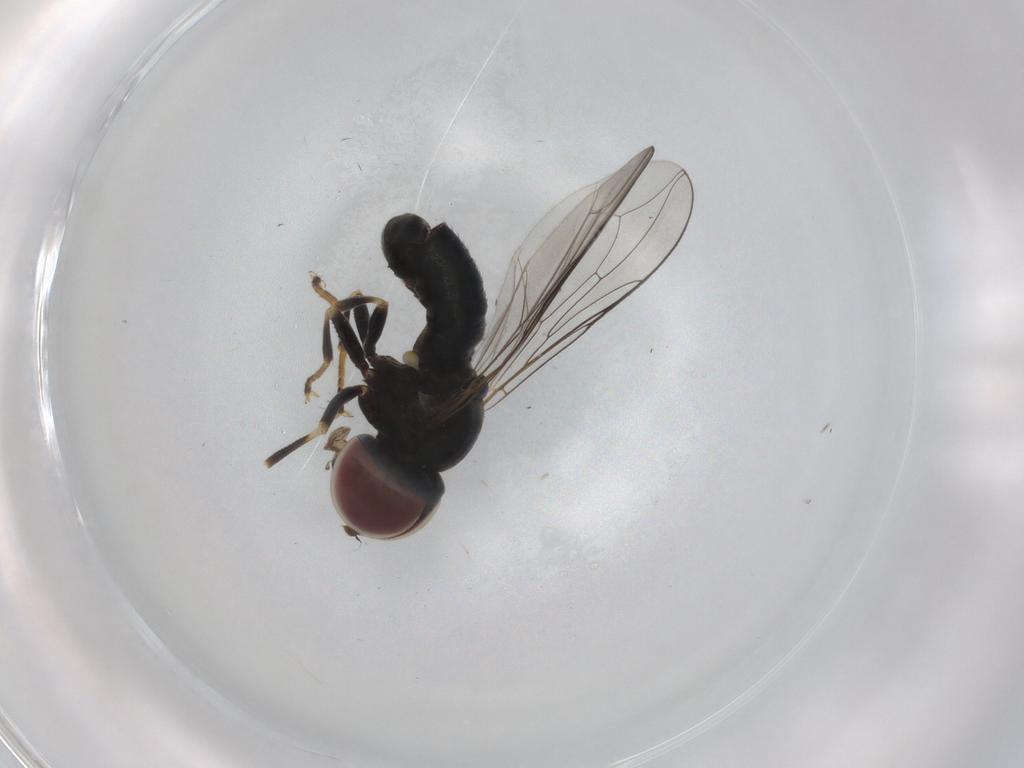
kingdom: Animalia
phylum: Arthropoda
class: Insecta
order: Diptera
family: Pipunculidae
